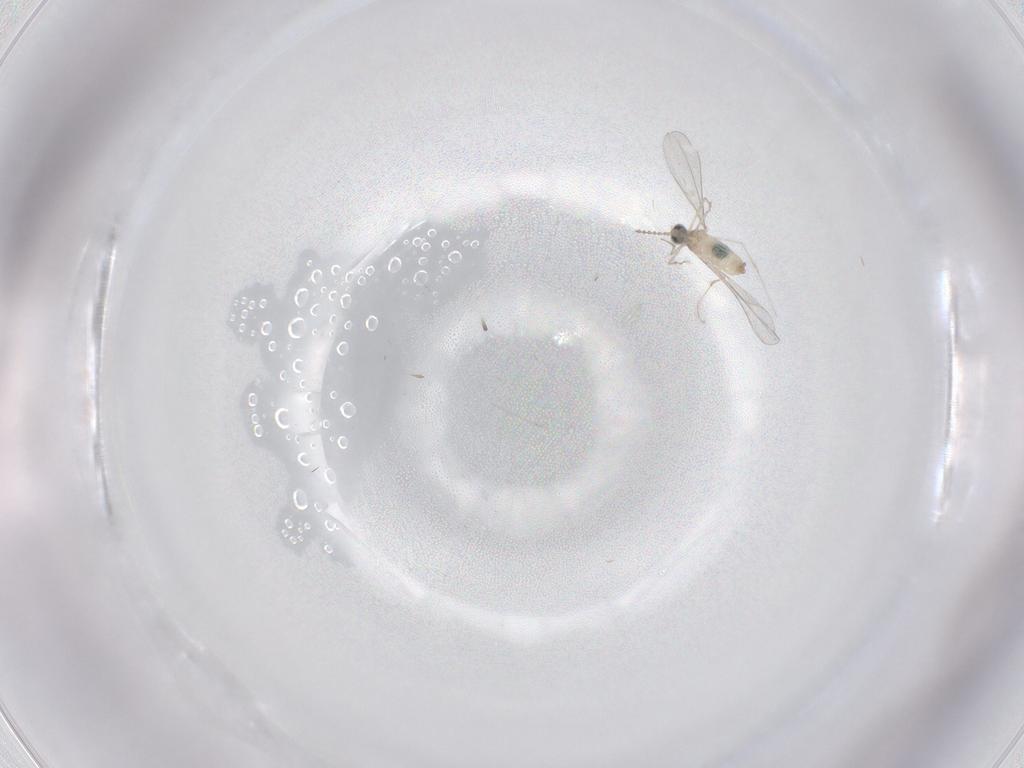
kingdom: Animalia
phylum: Arthropoda
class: Insecta
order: Diptera
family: Cecidomyiidae
